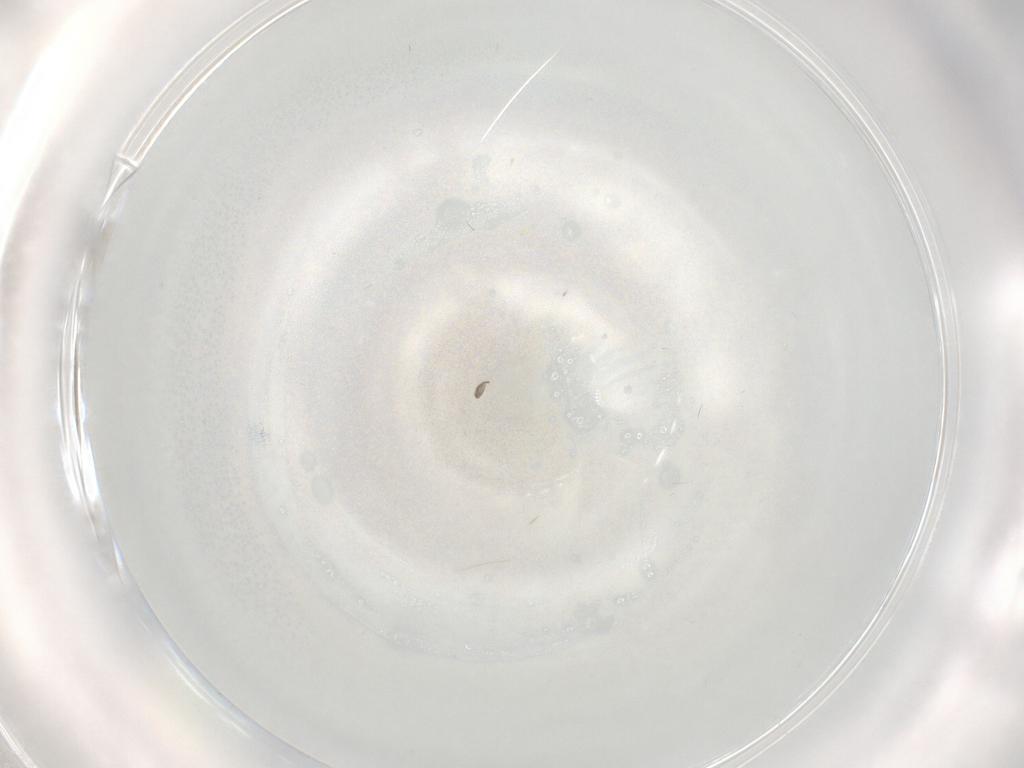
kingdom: Animalia
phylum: Arthropoda
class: Insecta
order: Diptera
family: Cecidomyiidae
